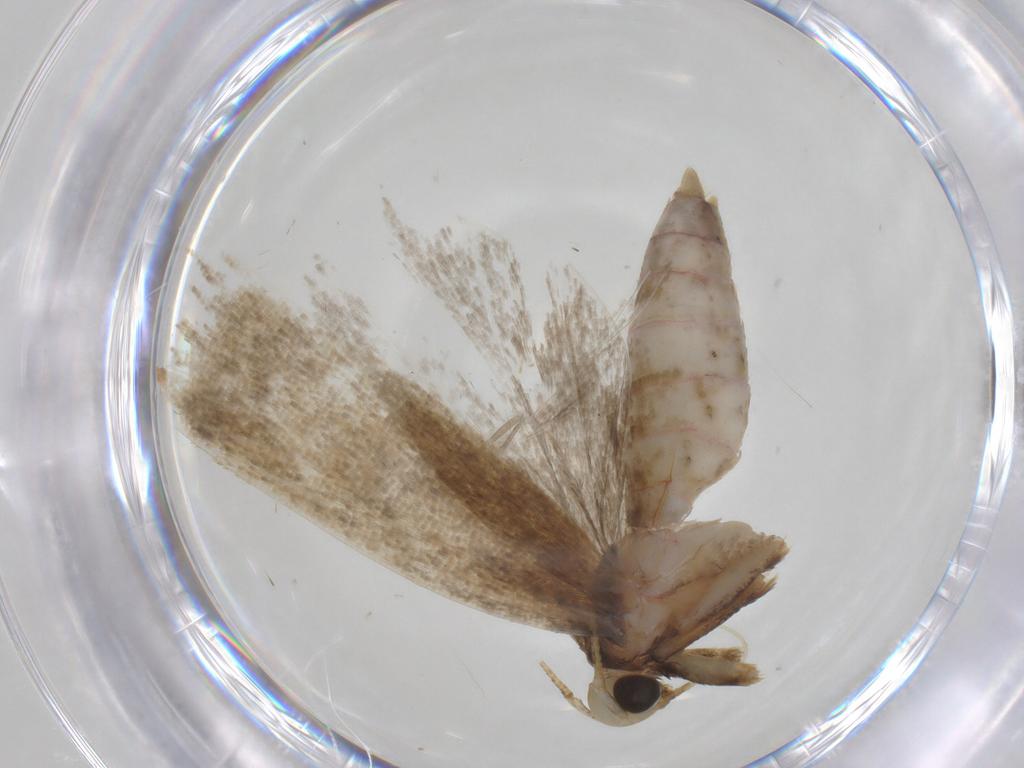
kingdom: Animalia
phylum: Arthropoda
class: Insecta
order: Lepidoptera
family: Autostichidae
